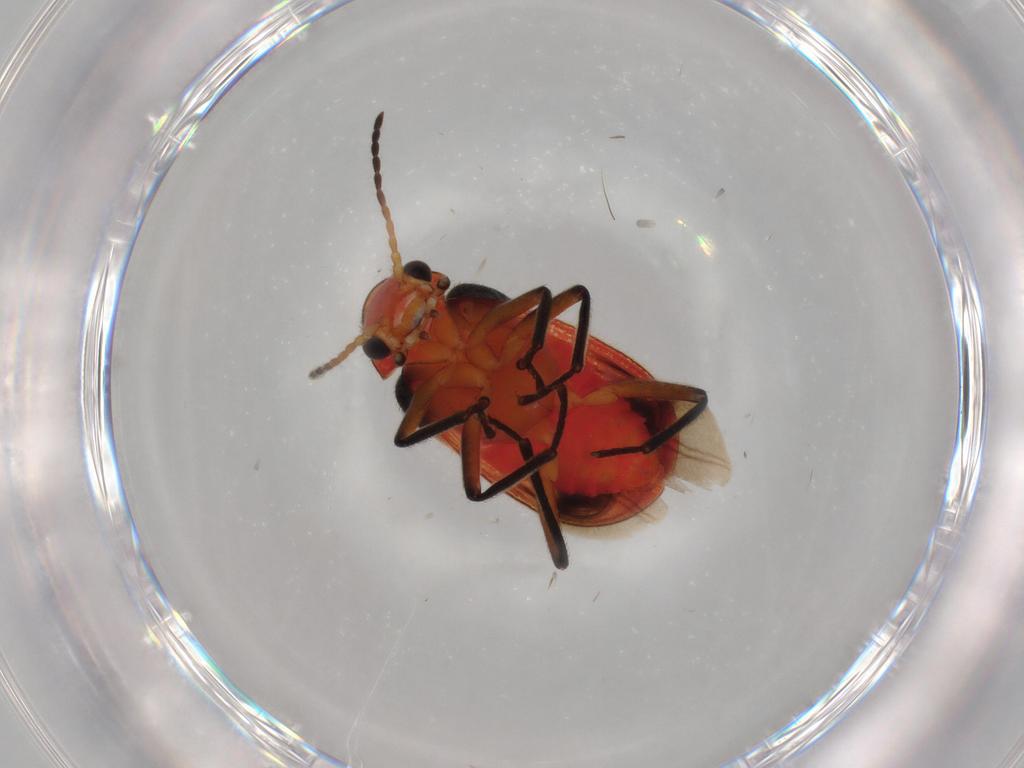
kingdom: Animalia
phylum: Arthropoda
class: Insecta
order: Coleoptera
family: Melyridae
